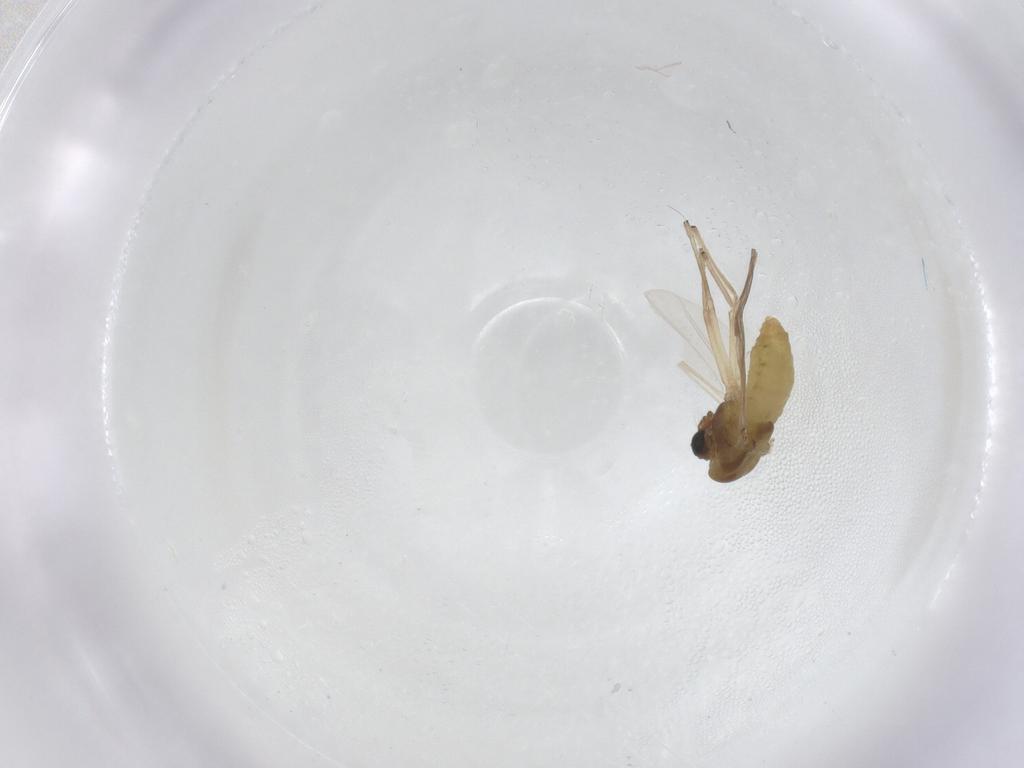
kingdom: Animalia
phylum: Arthropoda
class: Insecta
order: Diptera
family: Chironomidae
